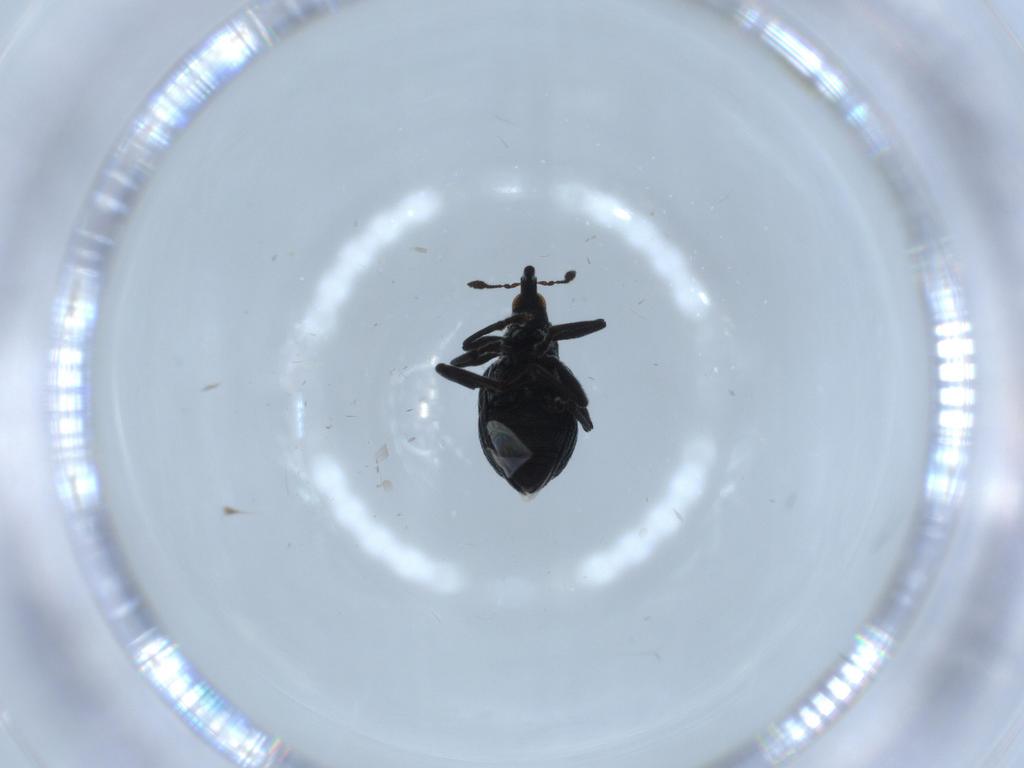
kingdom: Animalia
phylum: Arthropoda
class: Insecta
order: Coleoptera
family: Brentidae
